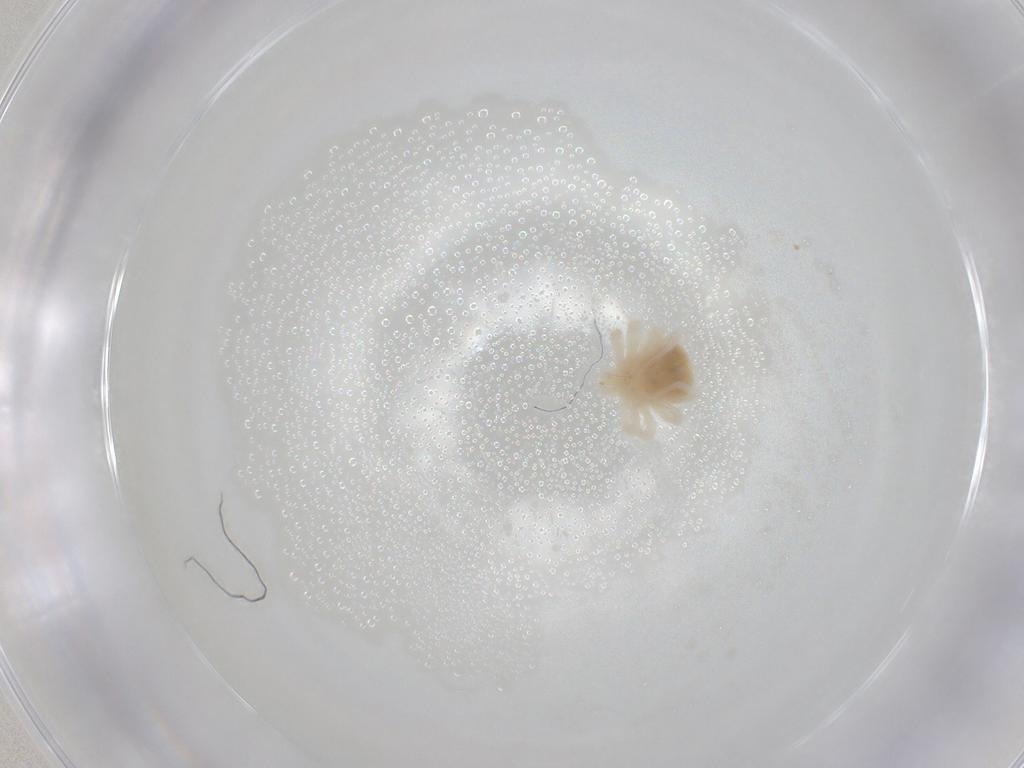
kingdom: Animalia
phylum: Arthropoda
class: Arachnida
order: Trombidiformes
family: Anystidae
